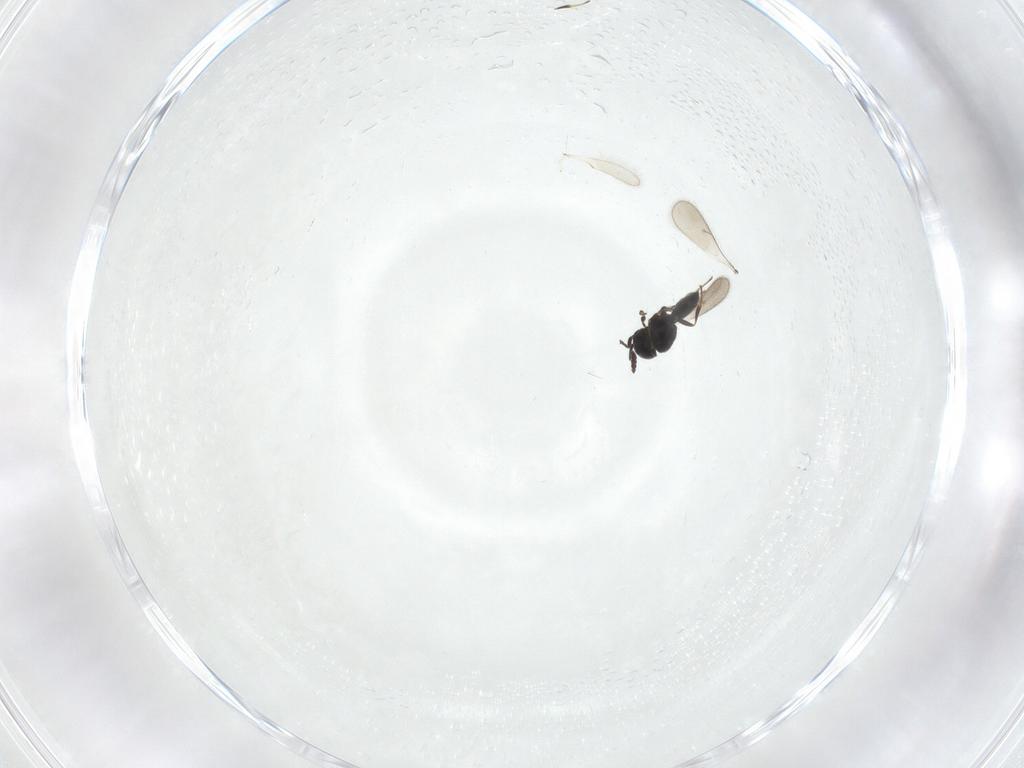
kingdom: Animalia
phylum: Arthropoda
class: Insecta
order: Hymenoptera
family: Scelionidae
